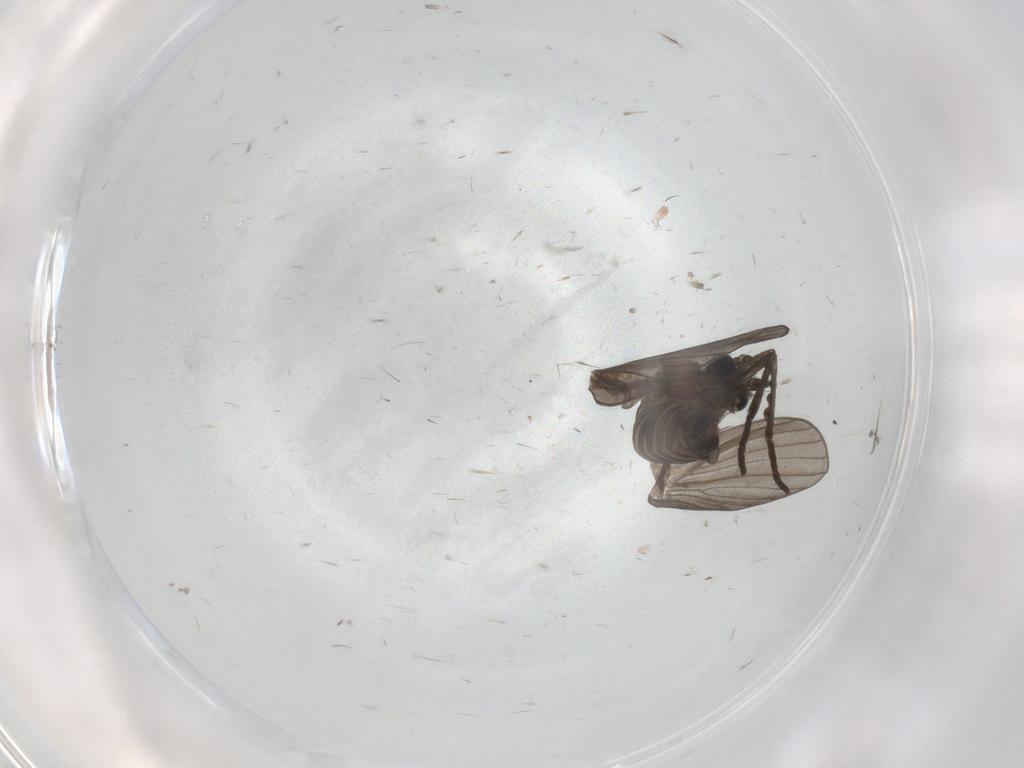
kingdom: Animalia
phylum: Arthropoda
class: Insecta
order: Diptera
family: Psychodidae
